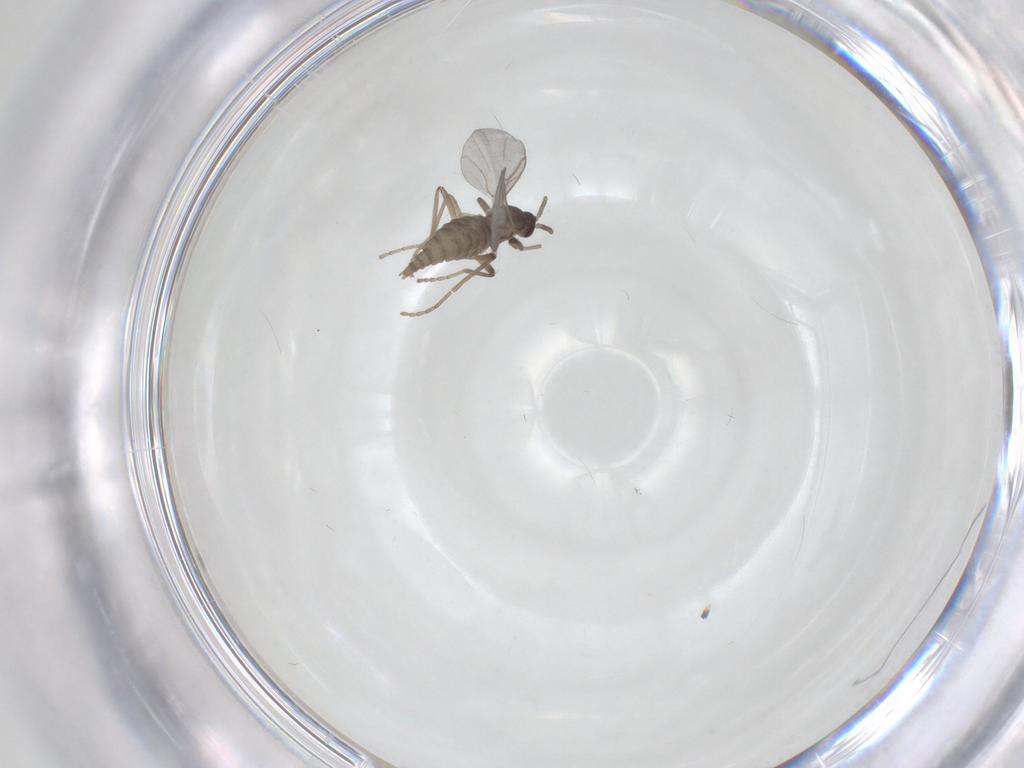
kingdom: Animalia
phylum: Arthropoda
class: Insecta
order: Diptera
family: Cecidomyiidae
